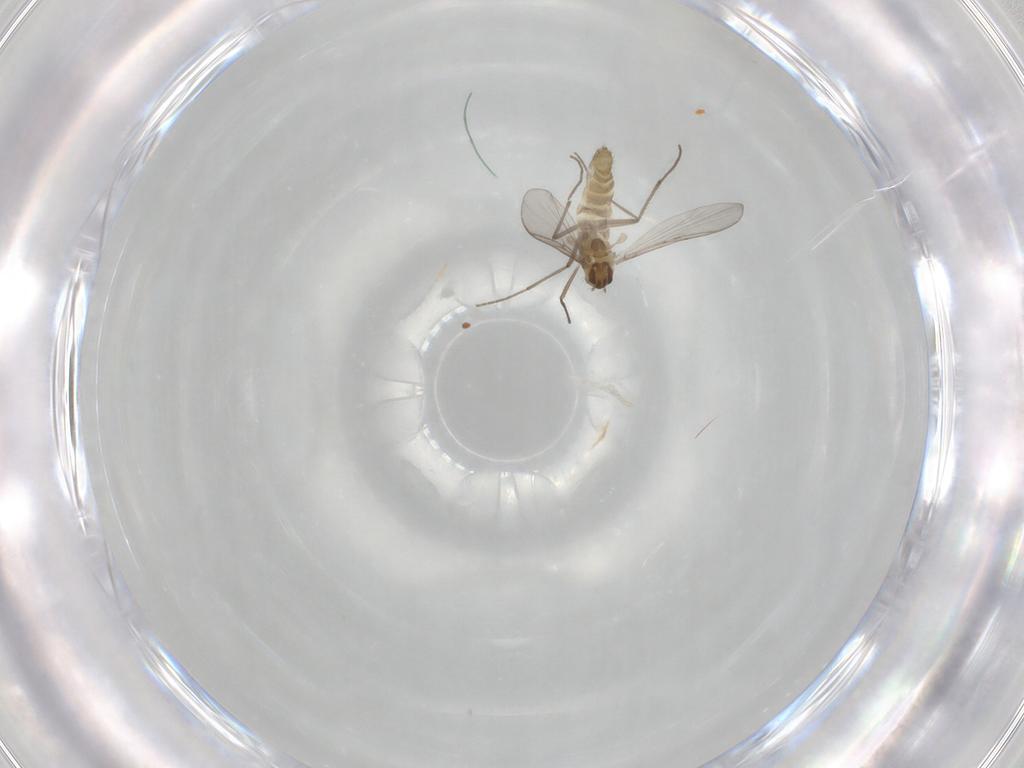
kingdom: Animalia
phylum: Arthropoda
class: Insecta
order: Diptera
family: Chironomidae
